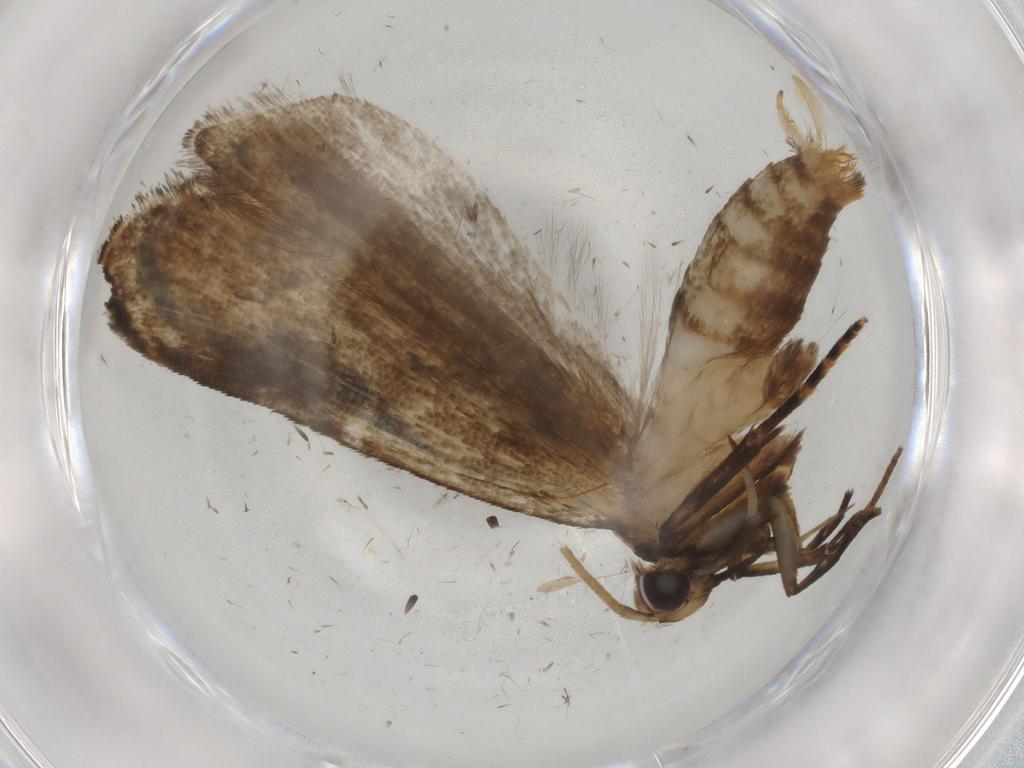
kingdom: Animalia
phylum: Arthropoda
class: Insecta
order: Lepidoptera
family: Gelechiidae
